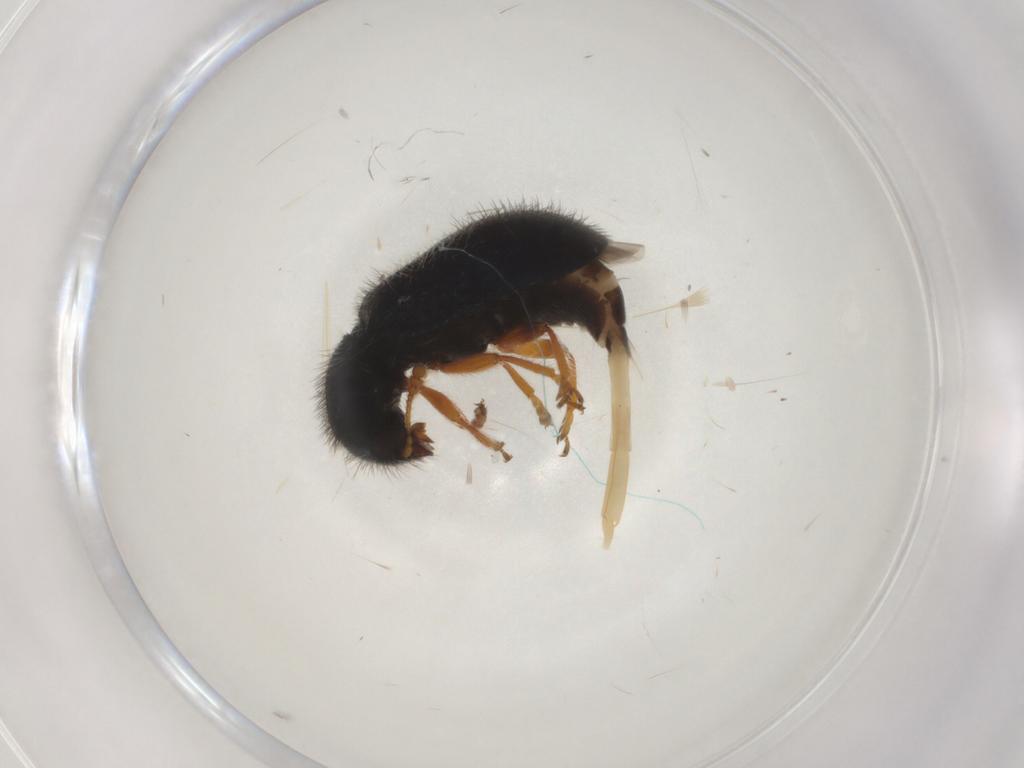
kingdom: Animalia
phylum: Arthropoda
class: Insecta
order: Coleoptera
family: Cleridae
